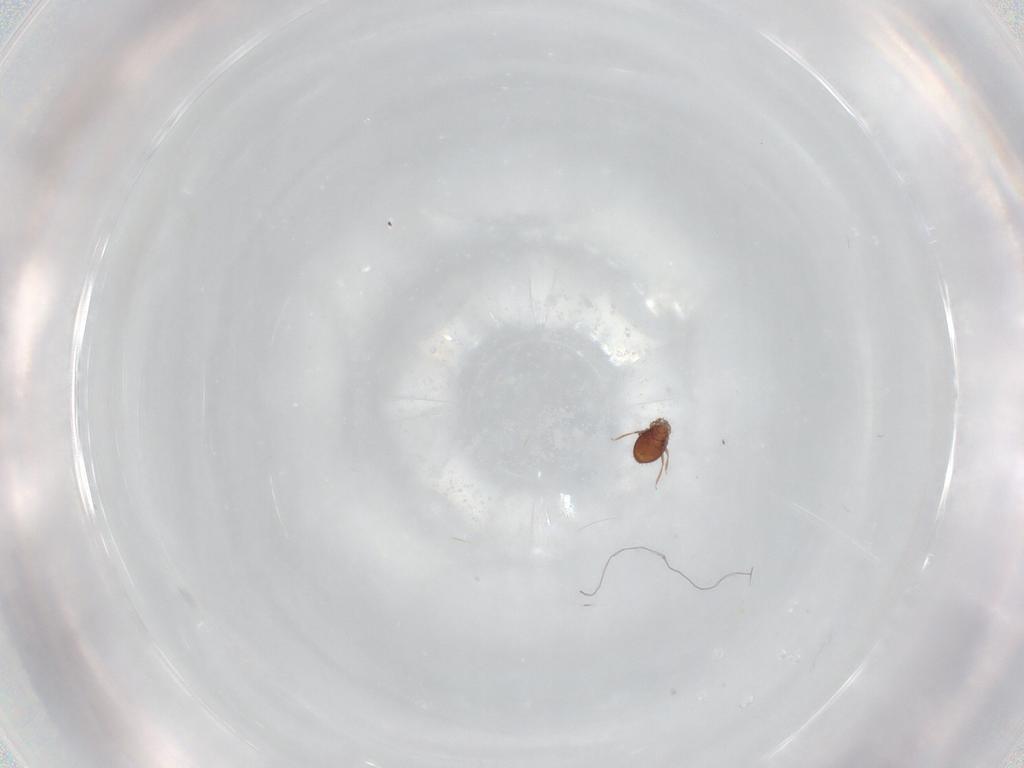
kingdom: Animalia
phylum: Arthropoda
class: Arachnida
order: Sarcoptiformes
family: Oribatulidae
